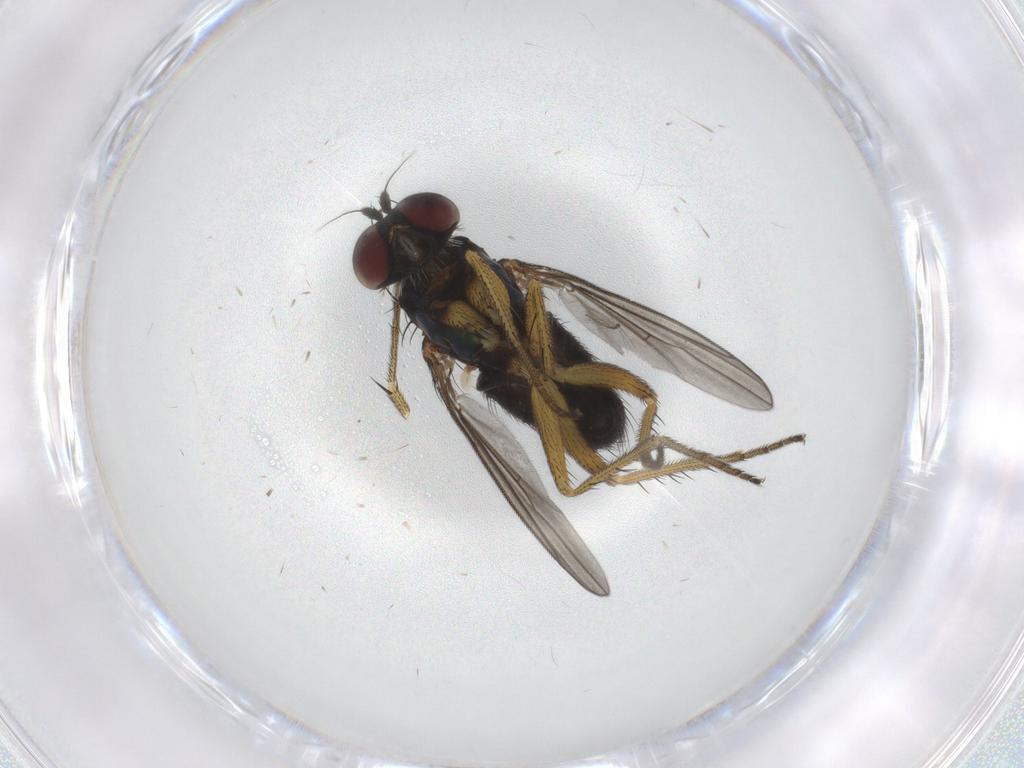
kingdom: Animalia
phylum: Arthropoda
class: Insecta
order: Diptera
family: Dolichopodidae
